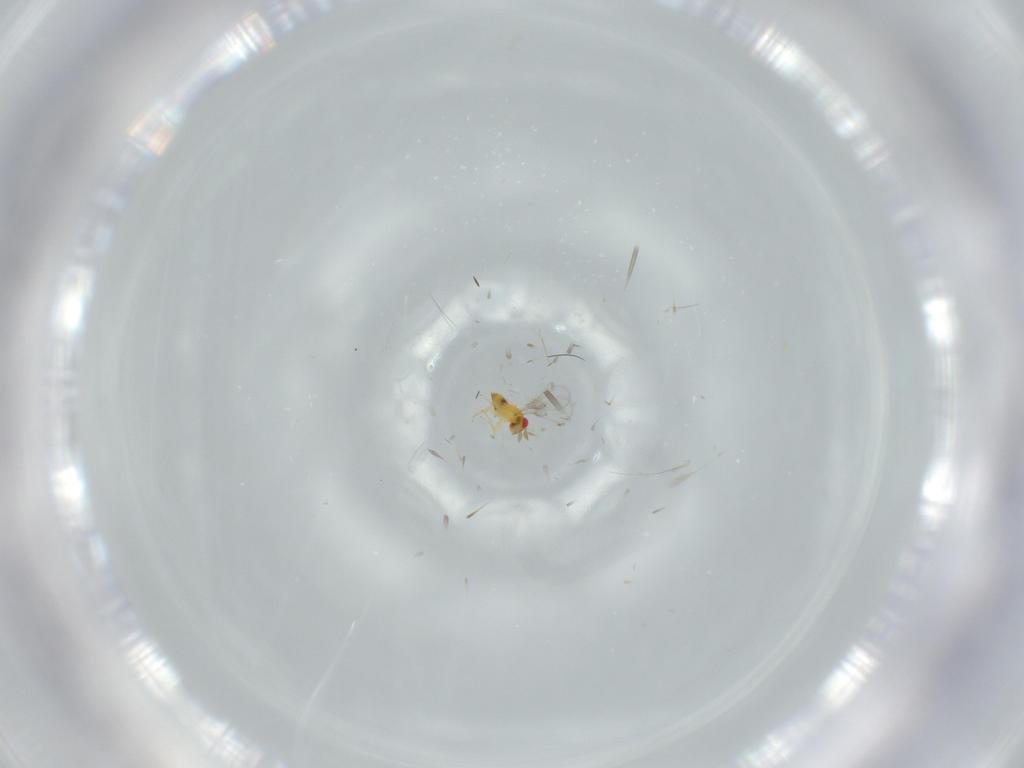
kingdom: Animalia
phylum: Arthropoda
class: Insecta
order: Hymenoptera
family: Trichogrammatidae
